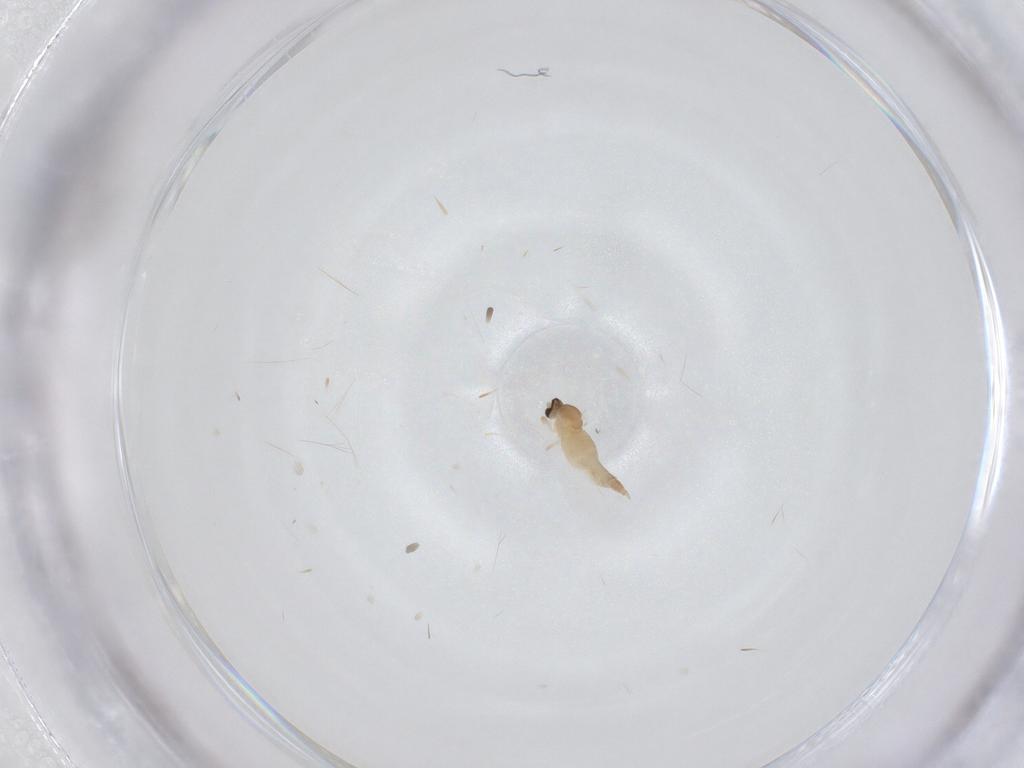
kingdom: Animalia
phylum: Arthropoda
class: Insecta
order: Diptera
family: Cecidomyiidae
